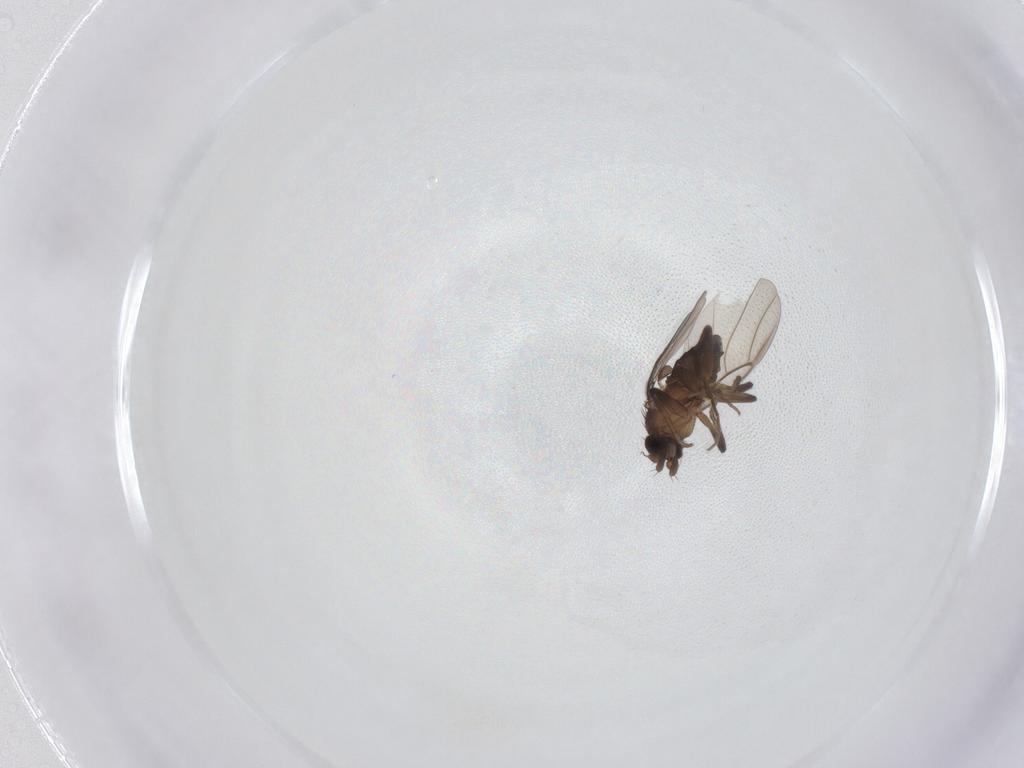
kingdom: Animalia
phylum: Arthropoda
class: Insecta
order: Diptera
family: Phoridae
